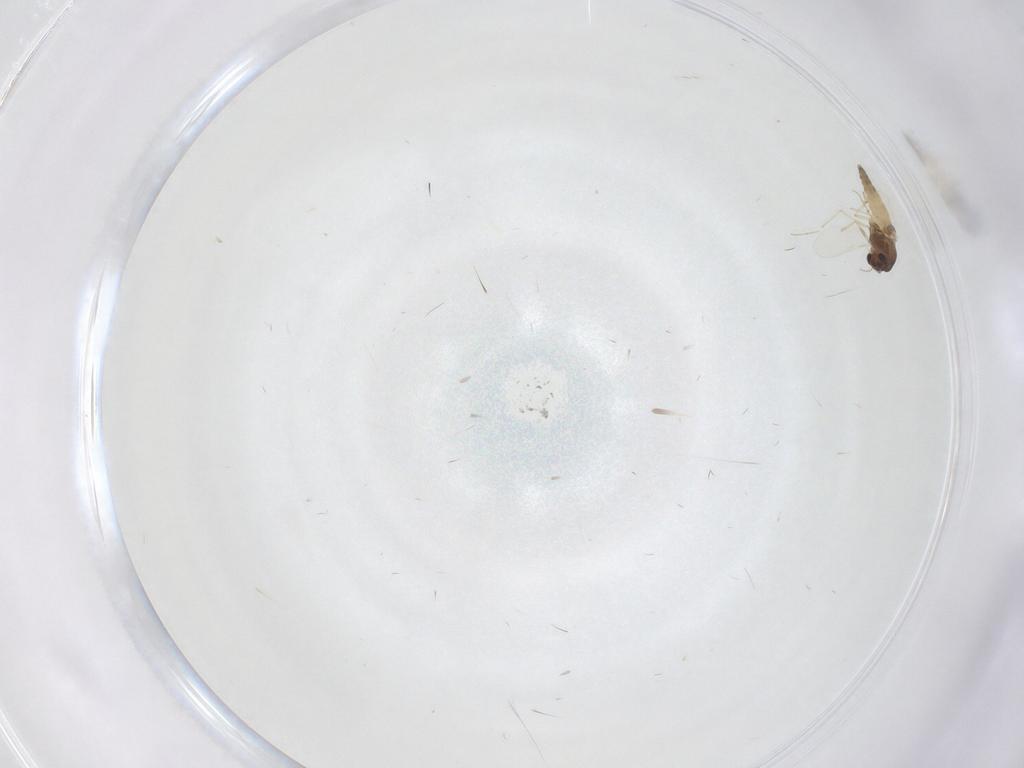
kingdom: Animalia
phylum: Arthropoda
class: Insecta
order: Diptera
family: Chironomidae
